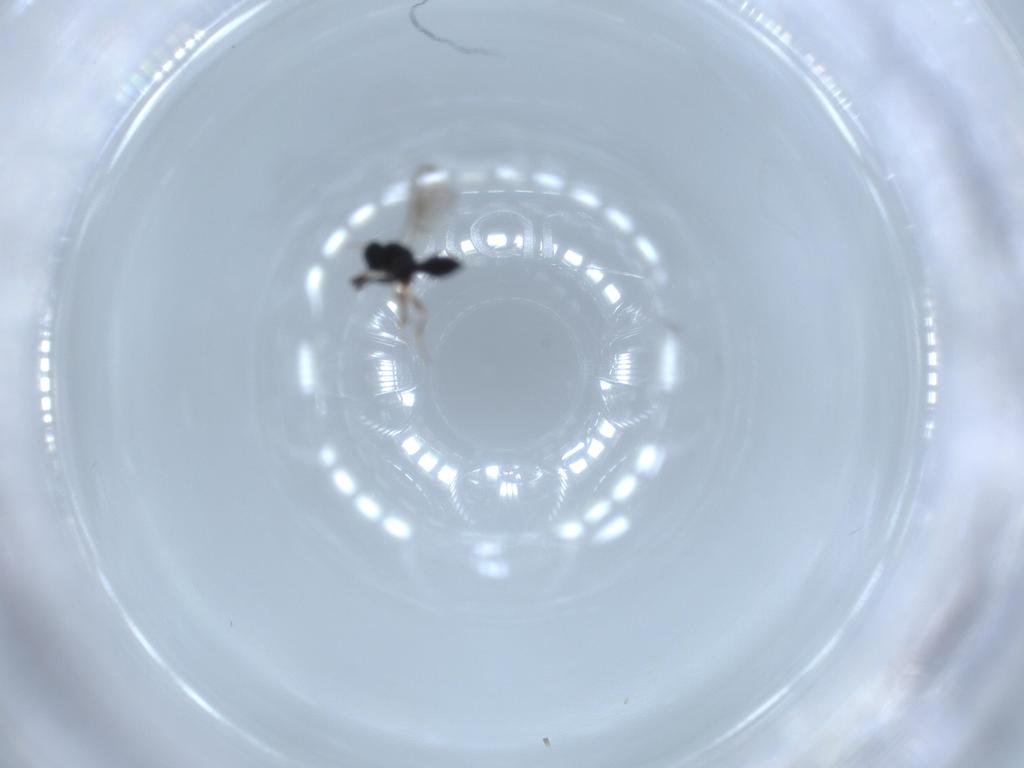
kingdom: Animalia
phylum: Arthropoda
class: Insecta
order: Hymenoptera
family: Scelionidae
